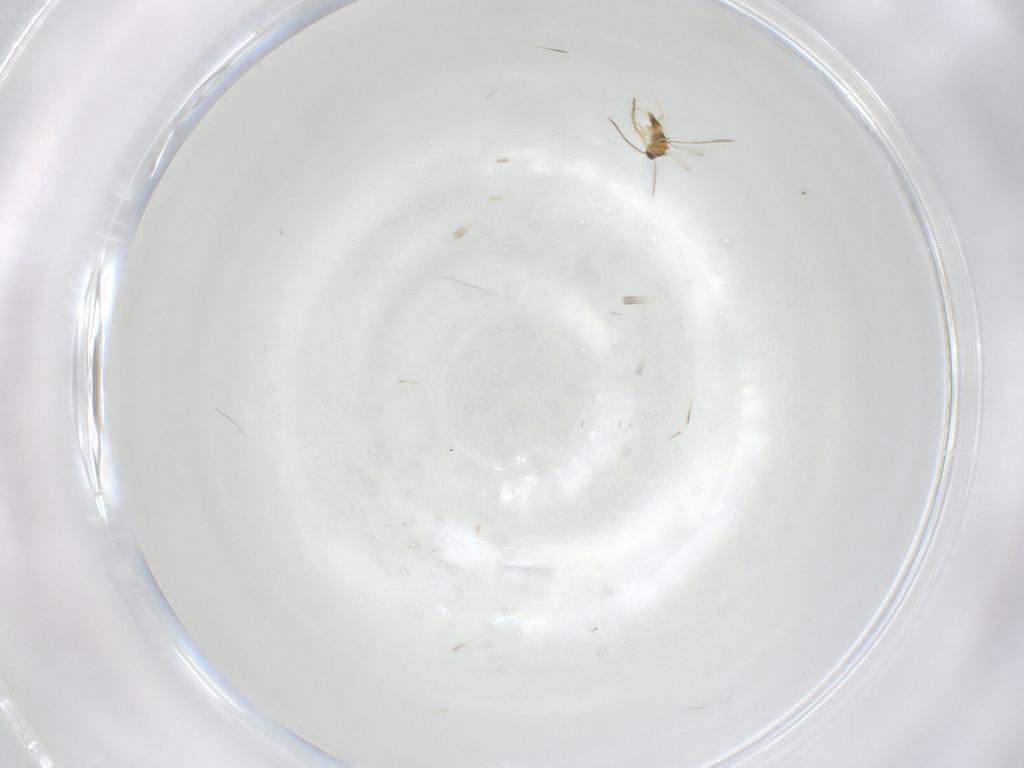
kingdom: Animalia
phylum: Arthropoda
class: Insecta
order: Hymenoptera
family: Mymaridae
